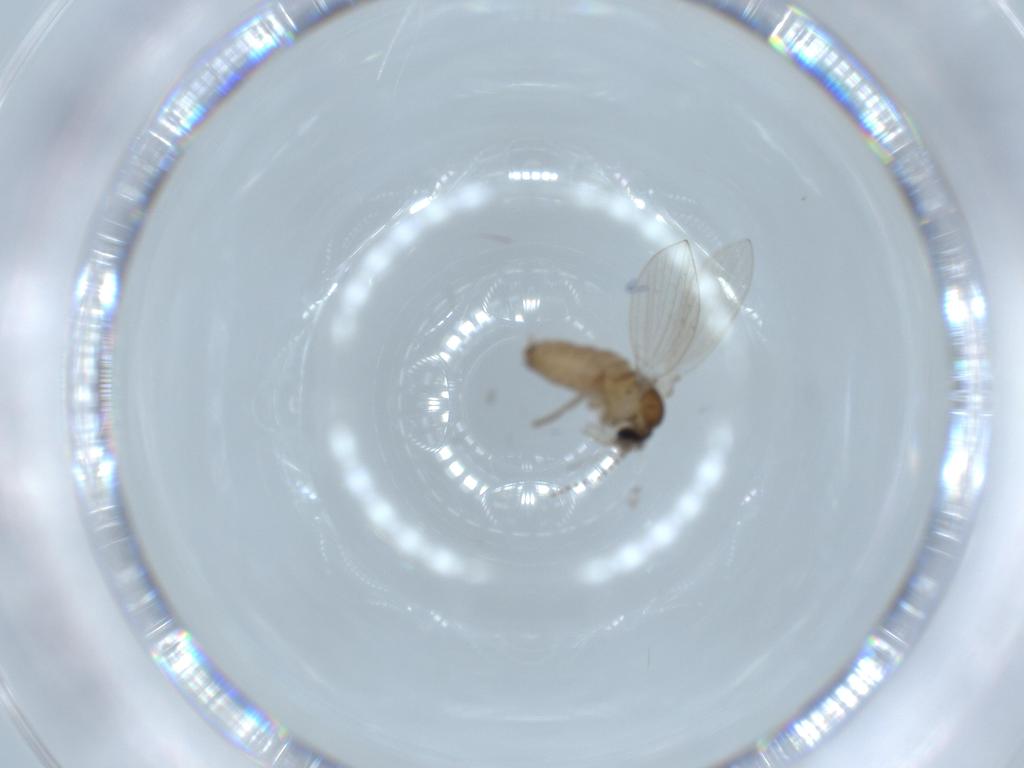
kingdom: Animalia
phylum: Arthropoda
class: Insecta
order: Diptera
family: Psychodidae
